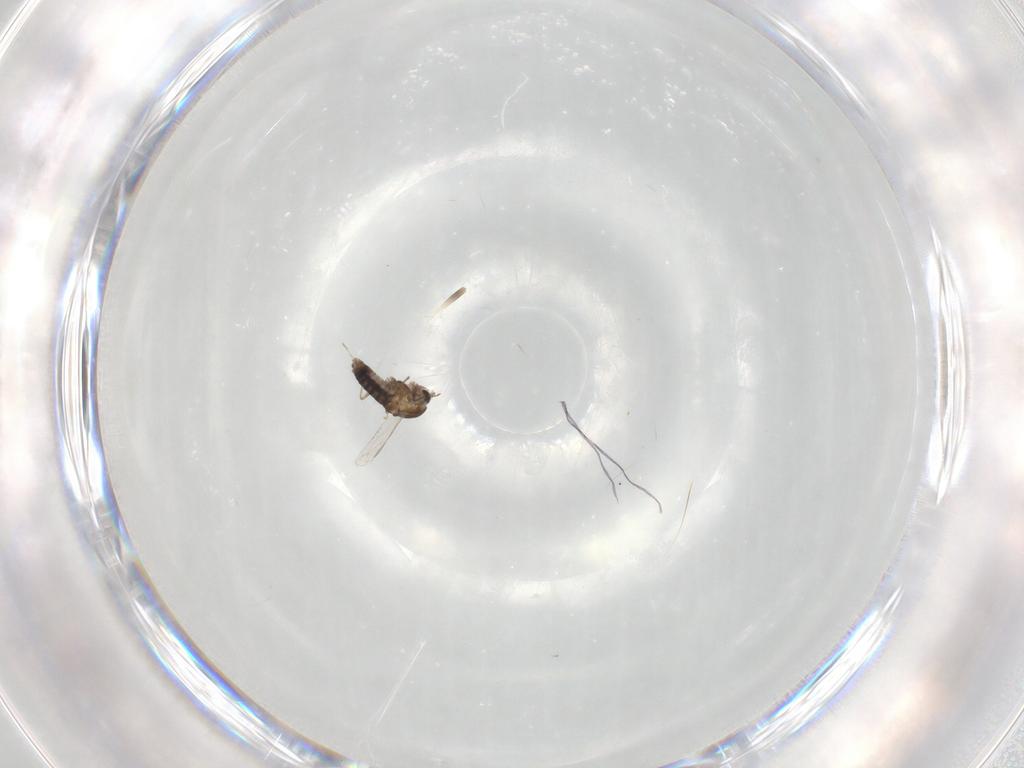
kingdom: Animalia
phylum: Arthropoda
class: Insecta
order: Diptera
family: Psychodidae
